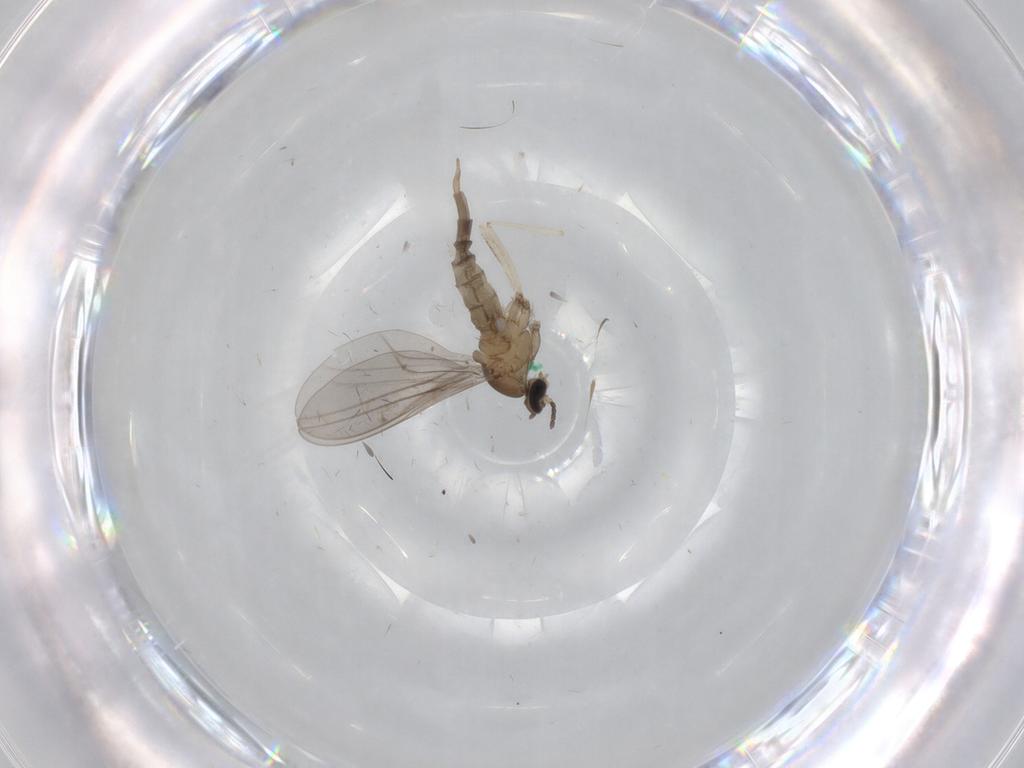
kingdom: Animalia
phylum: Arthropoda
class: Insecta
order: Diptera
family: Cecidomyiidae
